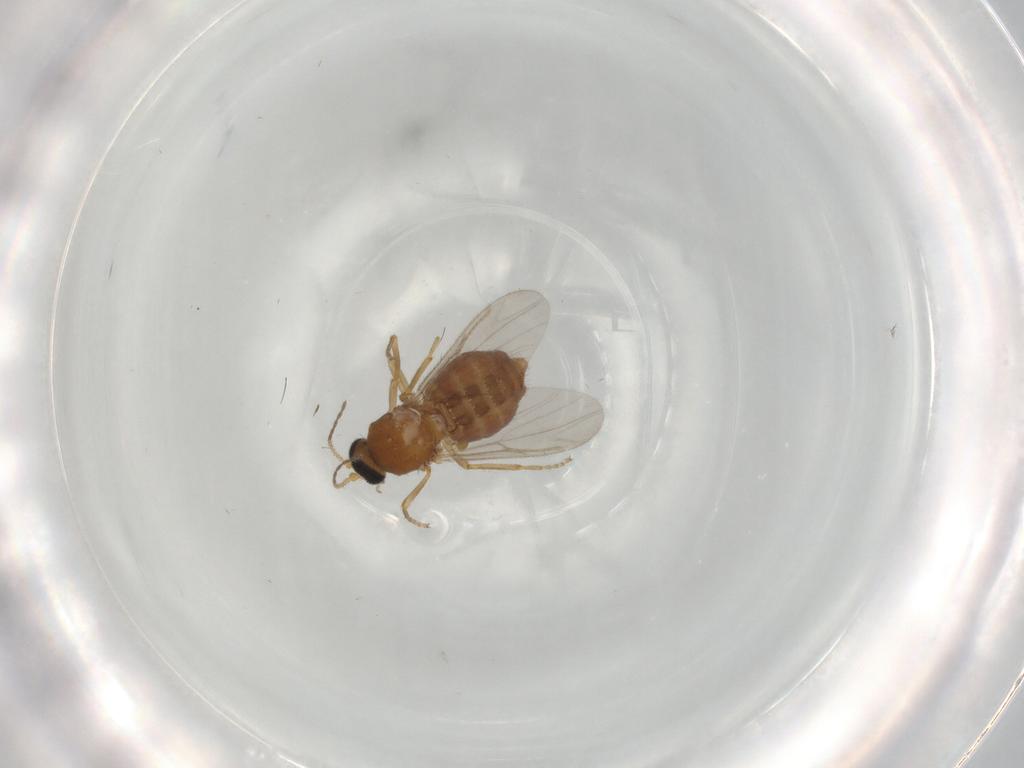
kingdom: Animalia
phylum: Arthropoda
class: Insecta
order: Diptera
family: Ceratopogonidae
